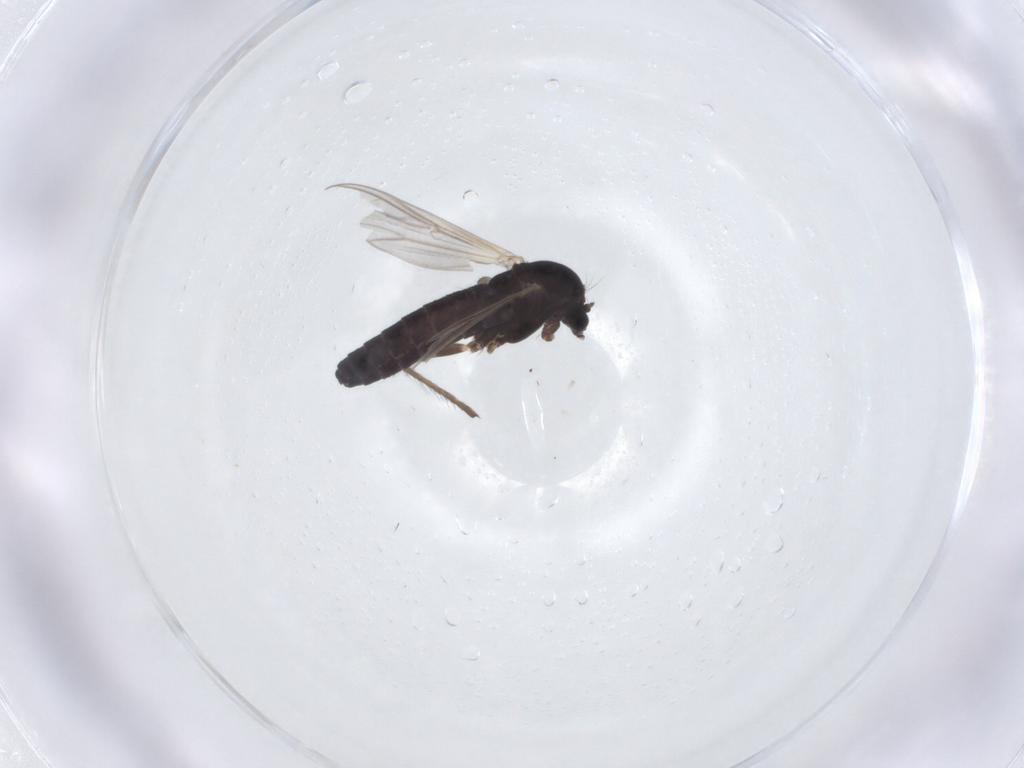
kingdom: Animalia
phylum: Arthropoda
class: Insecta
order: Diptera
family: Chironomidae
